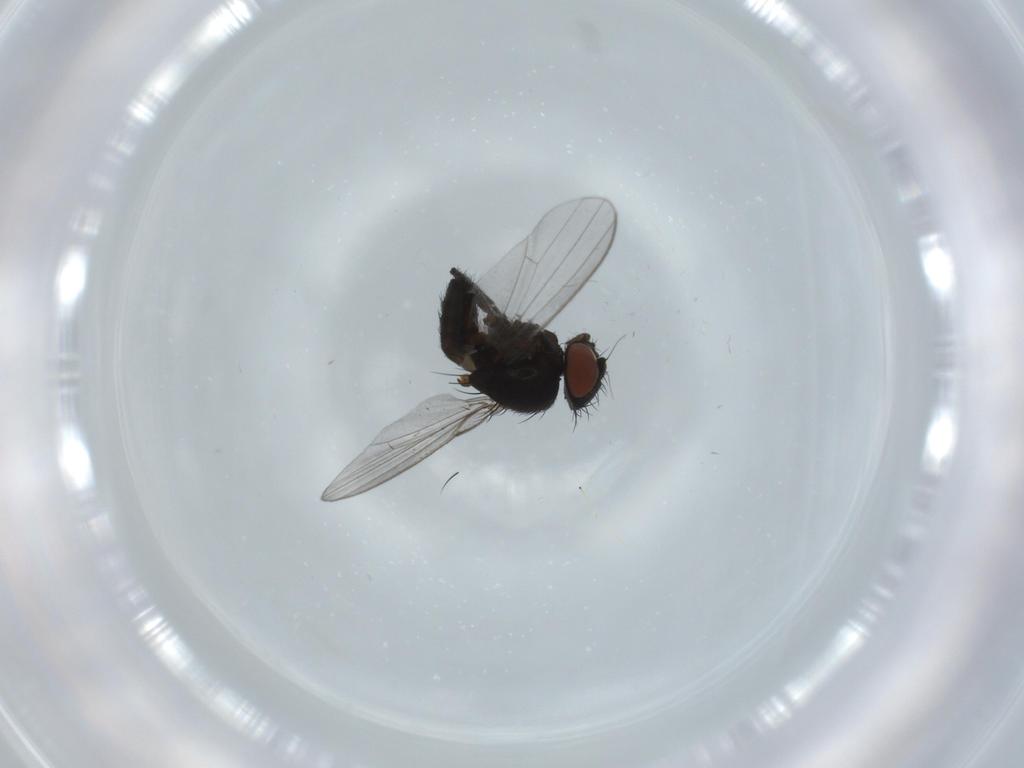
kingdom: Animalia
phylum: Arthropoda
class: Insecta
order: Diptera
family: Milichiidae
